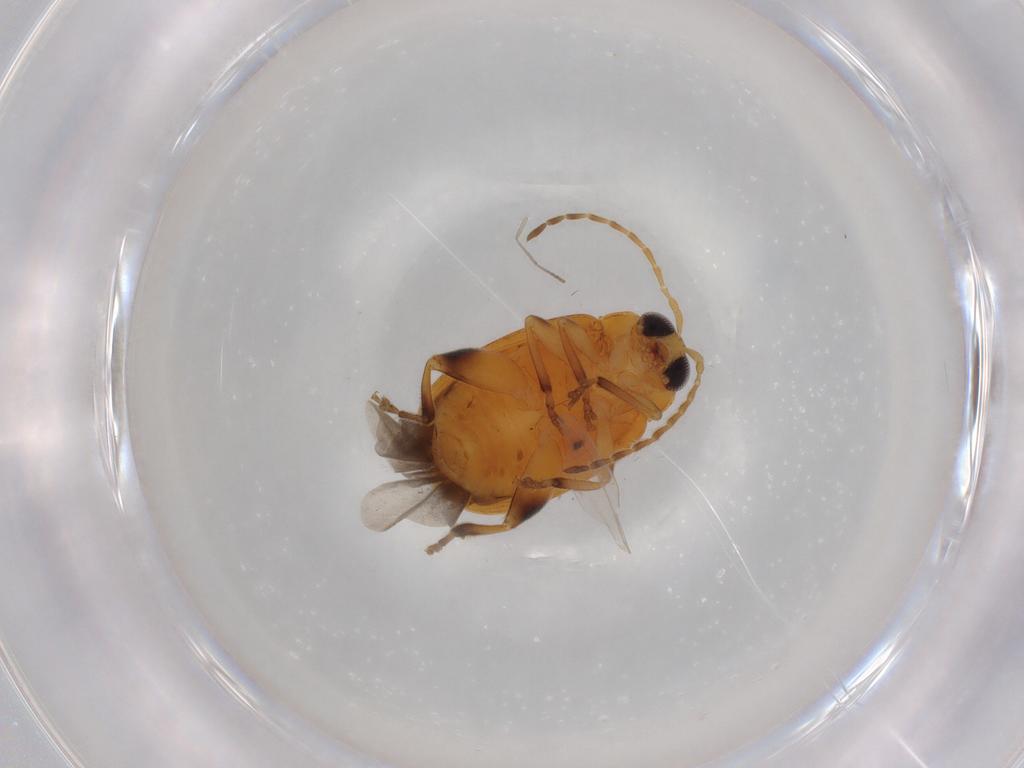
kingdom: Animalia
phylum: Arthropoda
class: Insecta
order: Coleoptera
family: Chrysomelidae
